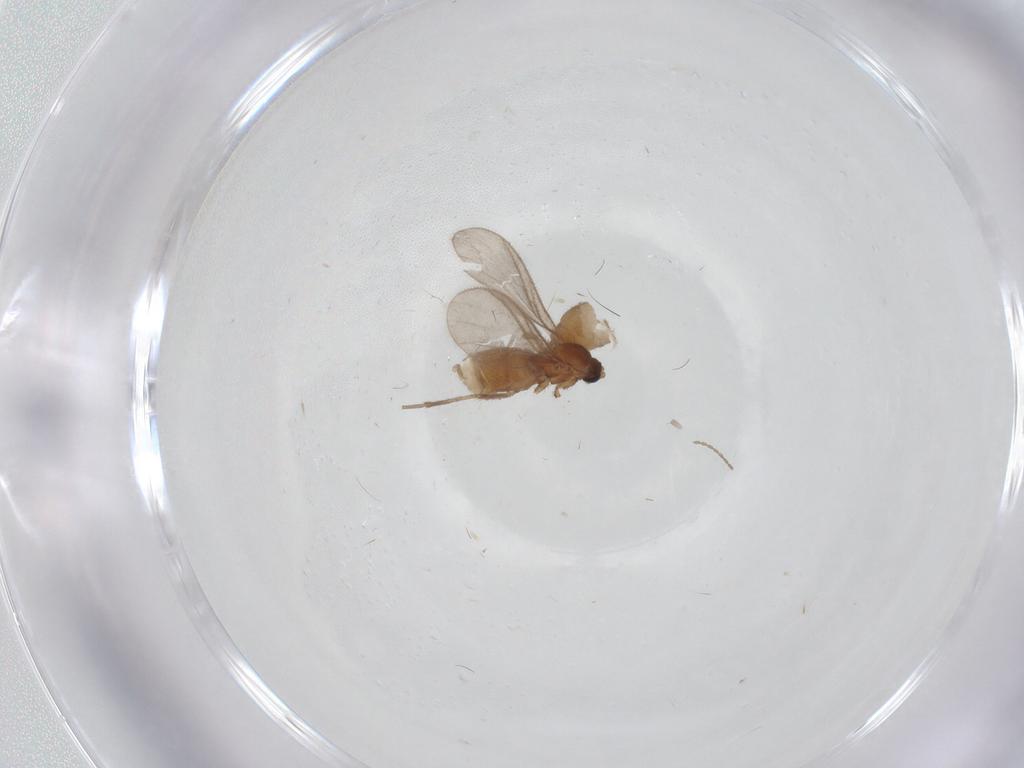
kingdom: Animalia
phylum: Arthropoda
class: Insecta
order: Diptera
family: Sciaridae
